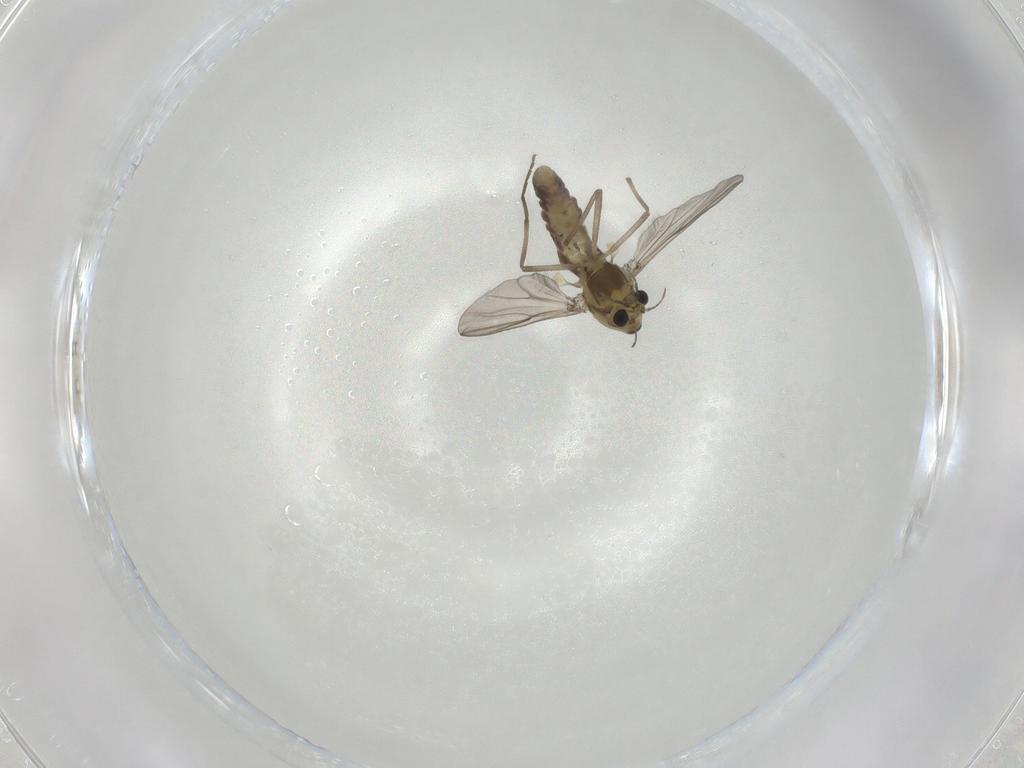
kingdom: Animalia
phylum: Arthropoda
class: Insecta
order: Diptera
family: Chironomidae
